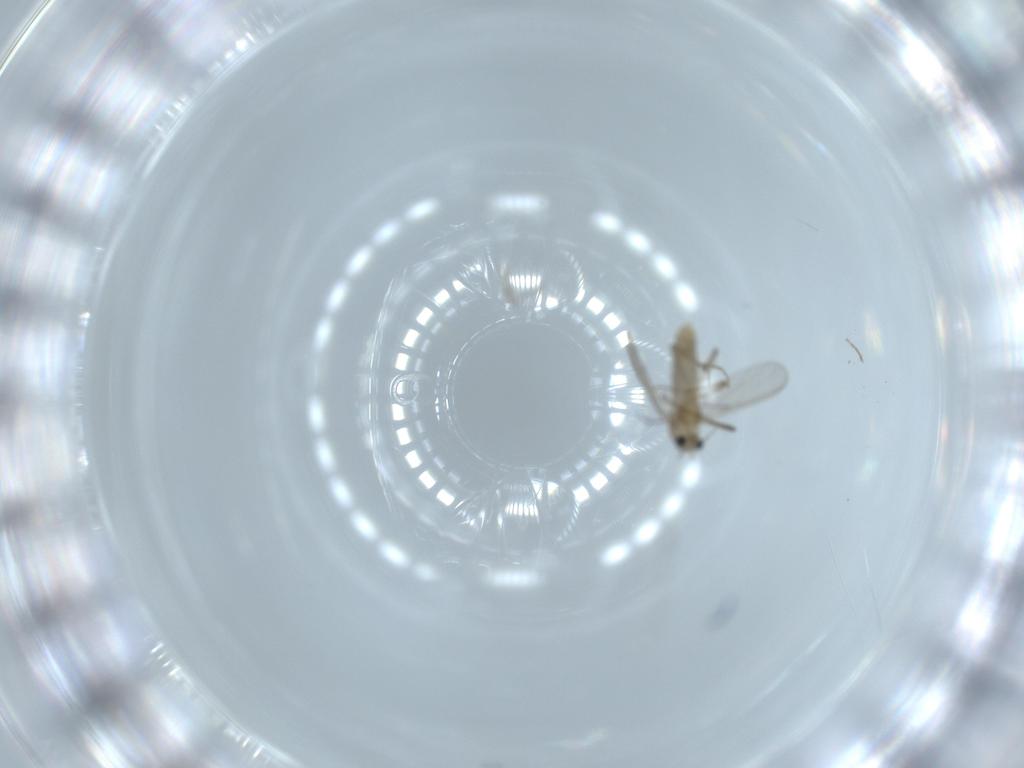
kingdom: Animalia
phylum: Arthropoda
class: Insecta
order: Diptera
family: Chironomidae
